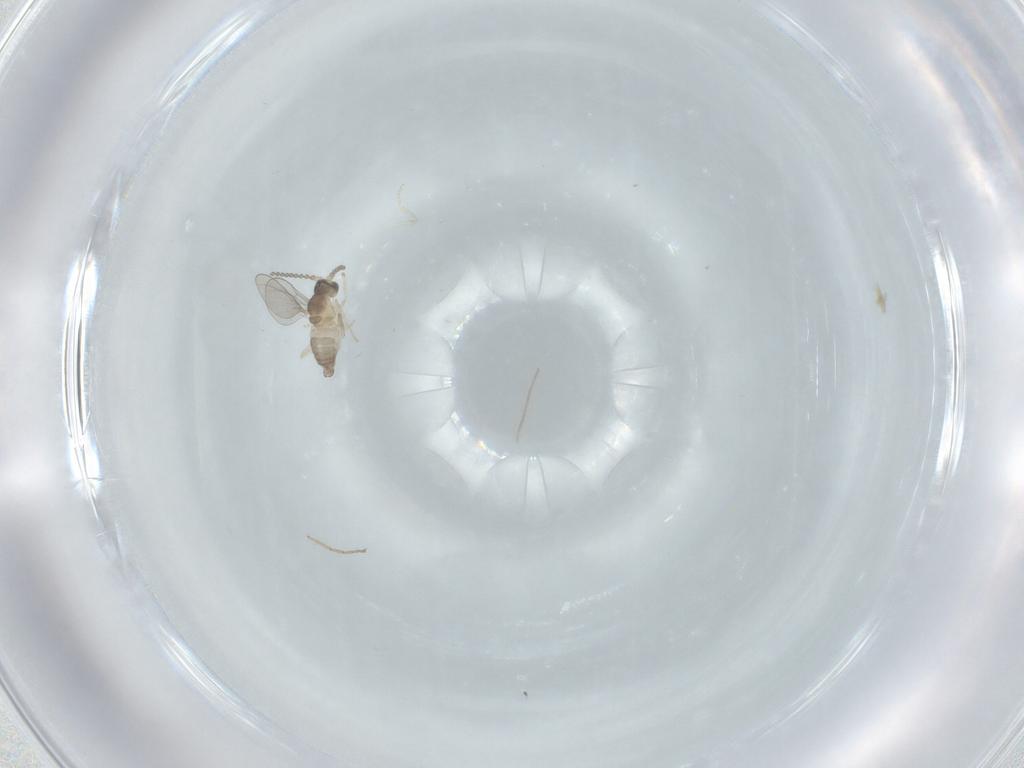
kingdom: Animalia
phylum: Arthropoda
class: Insecta
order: Diptera
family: Cecidomyiidae
